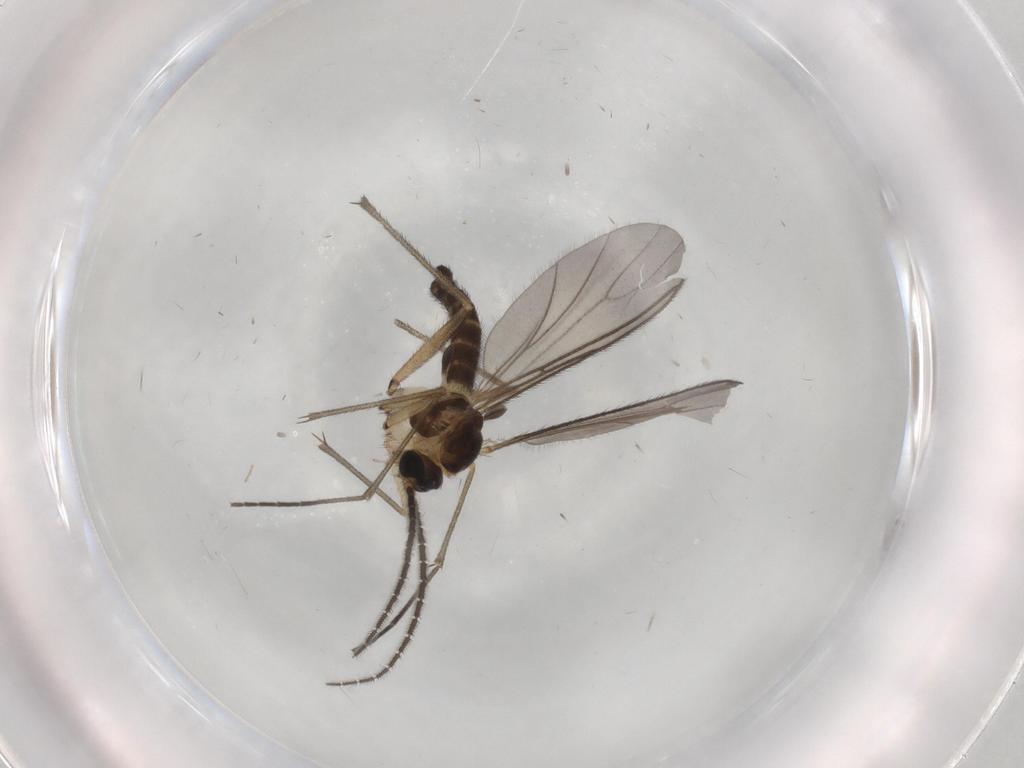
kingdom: Animalia
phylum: Arthropoda
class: Insecta
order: Diptera
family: Sciaridae
